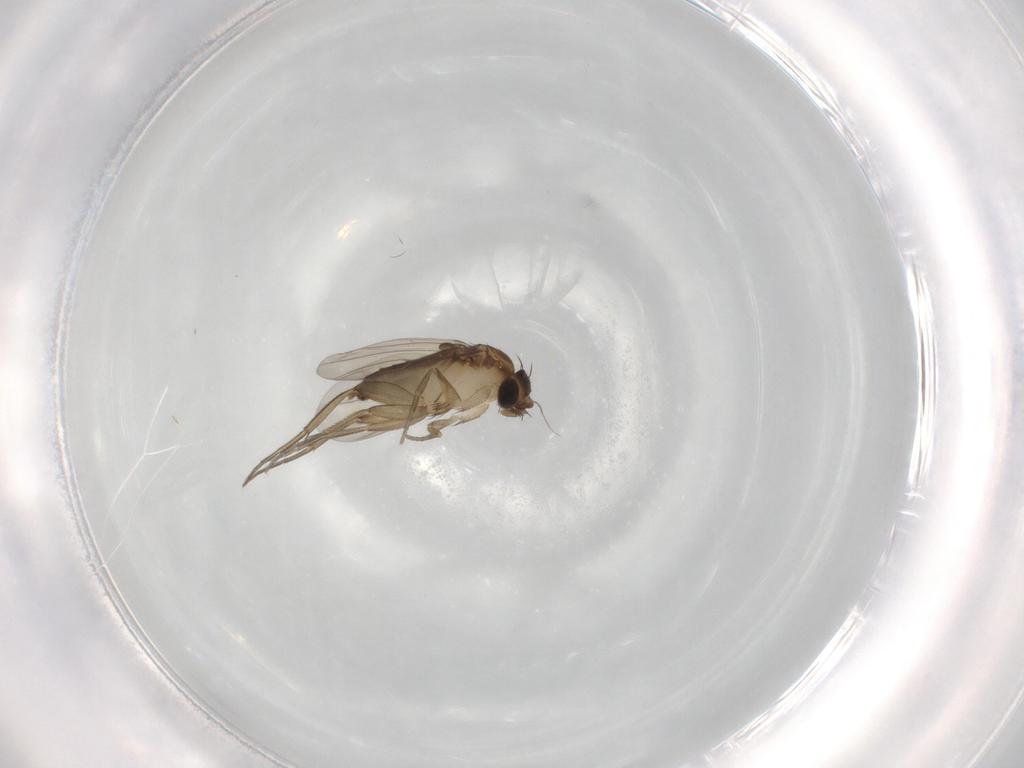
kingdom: Animalia
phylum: Arthropoda
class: Insecta
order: Diptera
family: Phoridae
